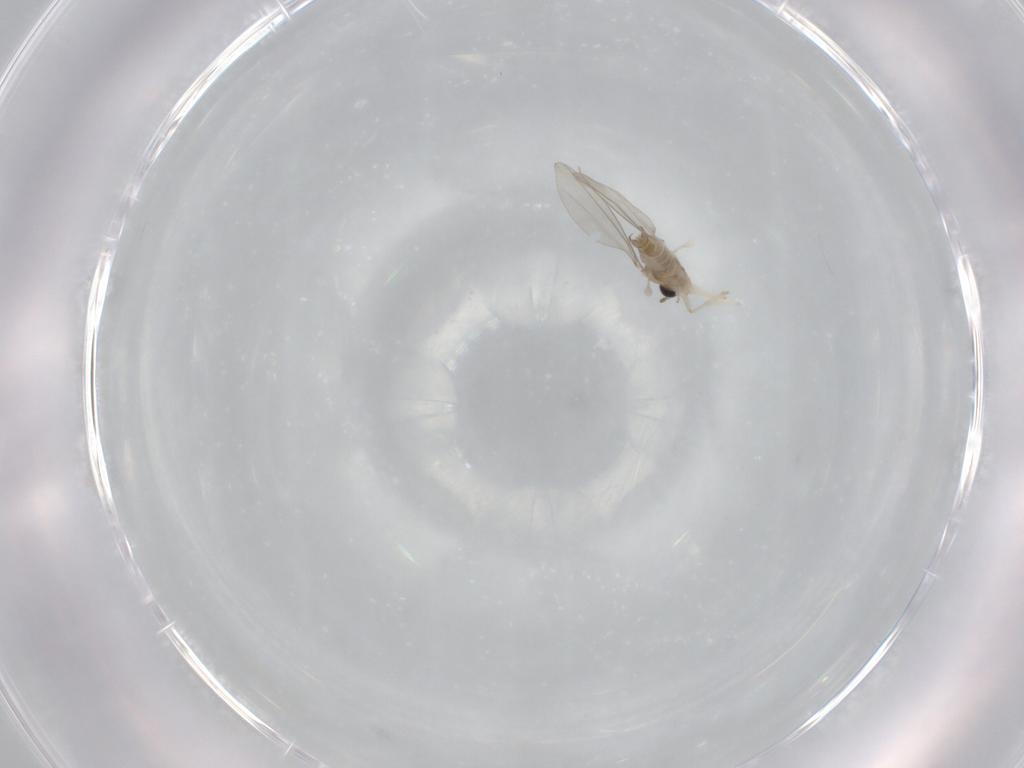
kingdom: Animalia
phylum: Arthropoda
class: Insecta
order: Diptera
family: Cecidomyiidae
